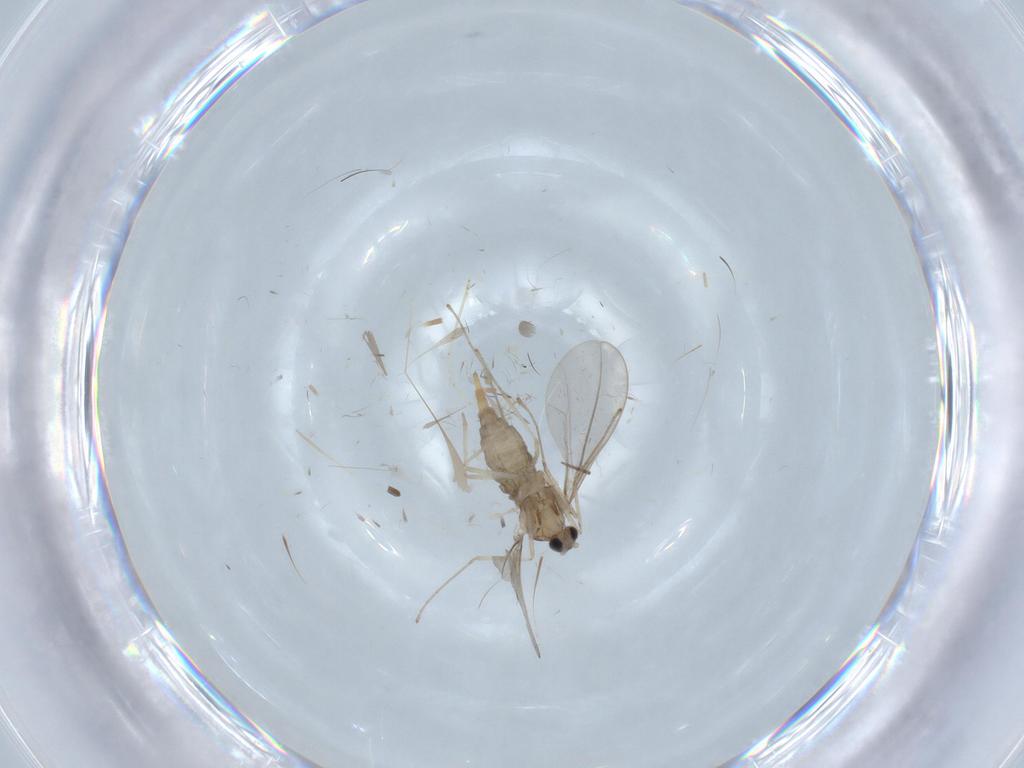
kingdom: Animalia
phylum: Arthropoda
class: Insecta
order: Diptera
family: Cecidomyiidae
